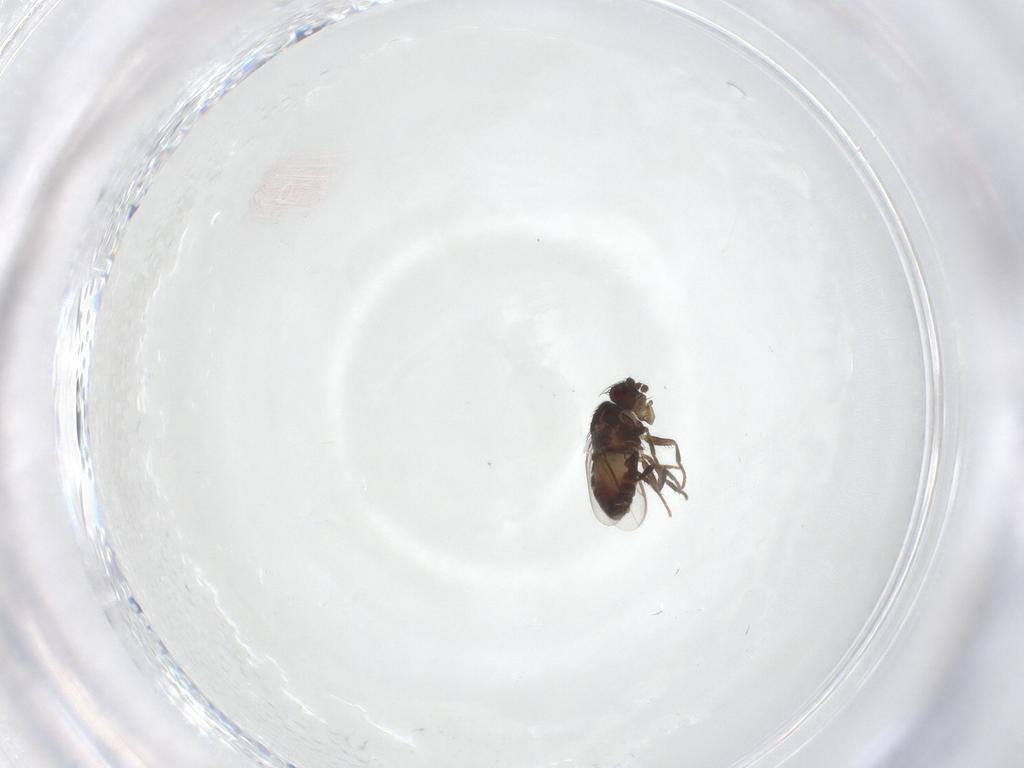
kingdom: Animalia
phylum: Arthropoda
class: Insecta
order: Diptera
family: Sphaeroceridae
